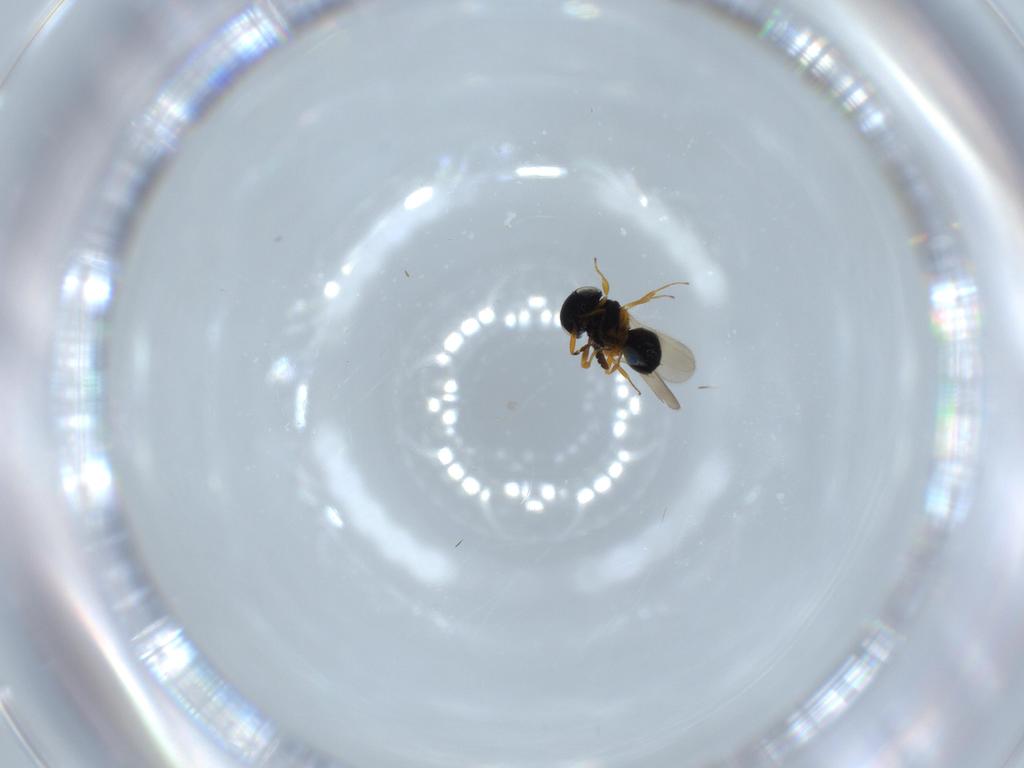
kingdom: Animalia
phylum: Arthropoda
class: Insecta
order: Hymenoptera
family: Scelionidae
